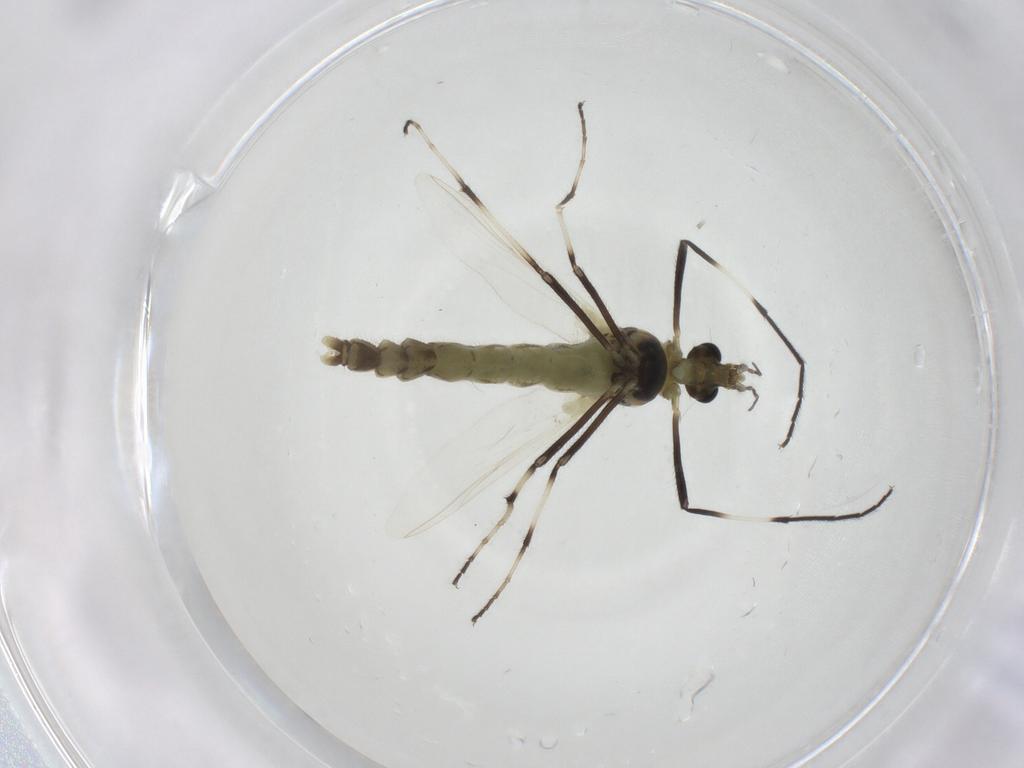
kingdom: Animalia
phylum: Arthropoda
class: Insecta
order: Diptera
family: Chironomidae
